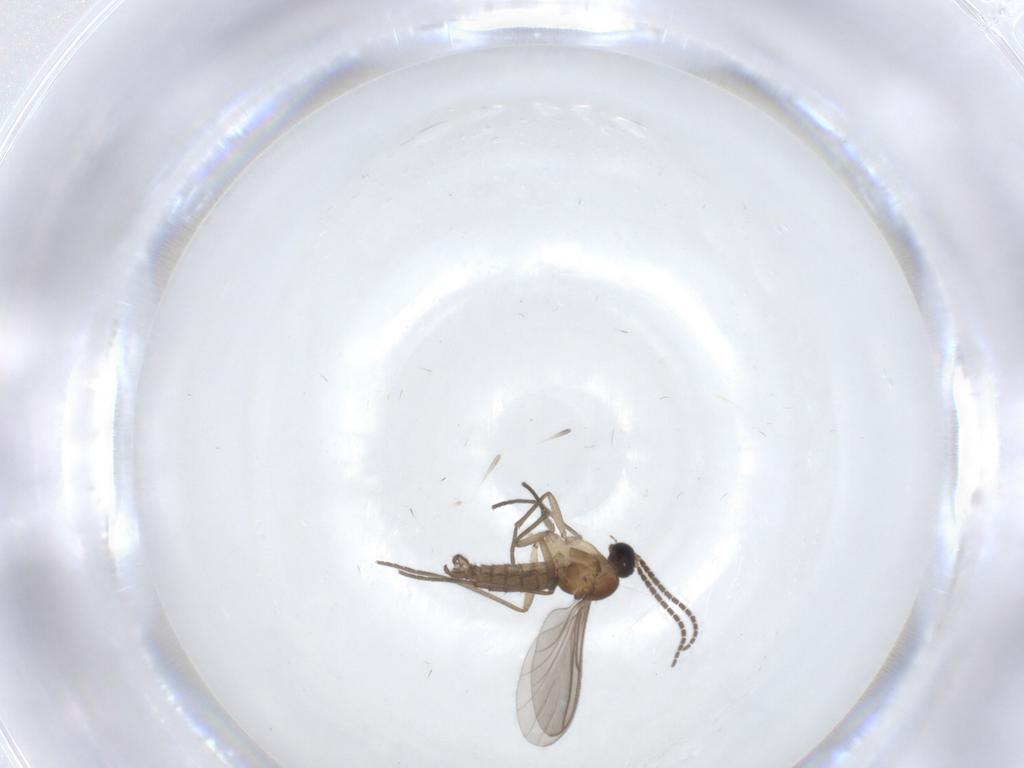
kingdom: Animalia
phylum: Arthropoda
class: Insecta
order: Diptera
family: Sciaridae
